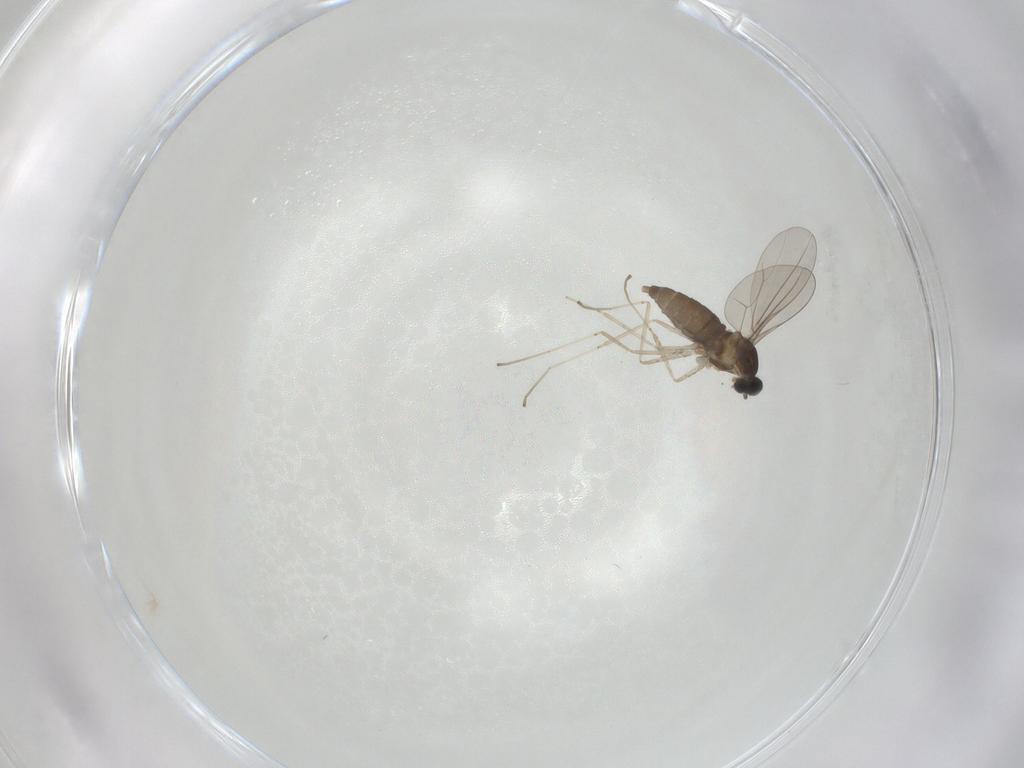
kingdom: Animalia
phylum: Arthropoda
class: Insecta
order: Diptera
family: Cecidomyiidae
